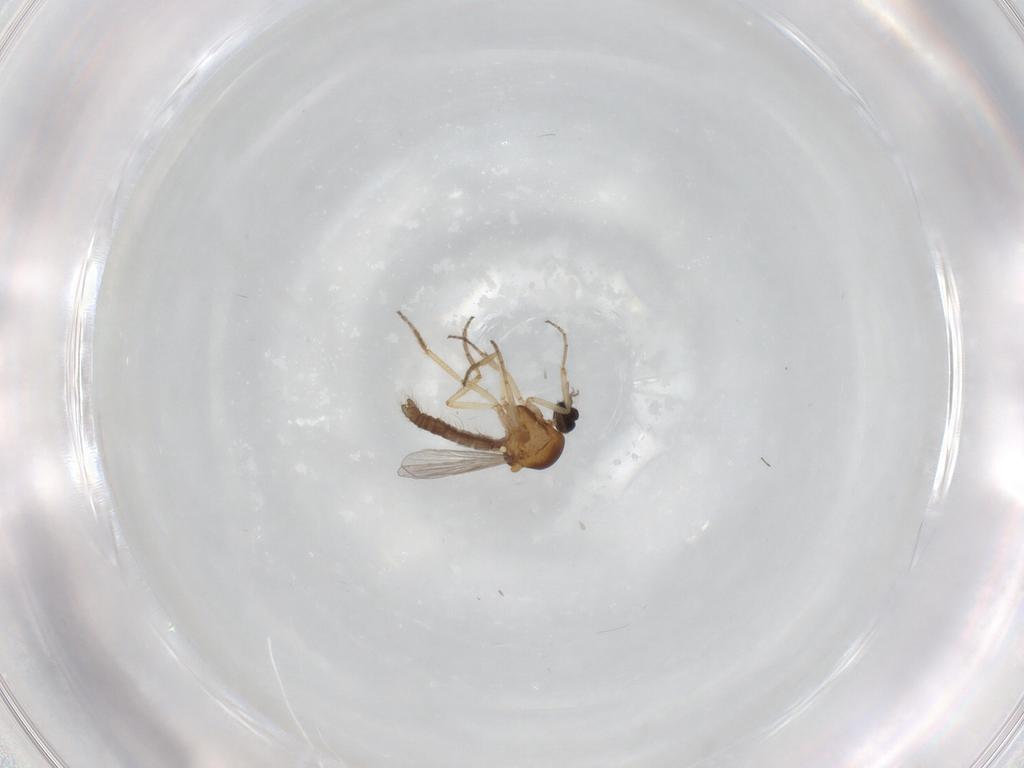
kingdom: Animalia
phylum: Arthropoda
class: Insecta
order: Diptera
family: Chironomidae
